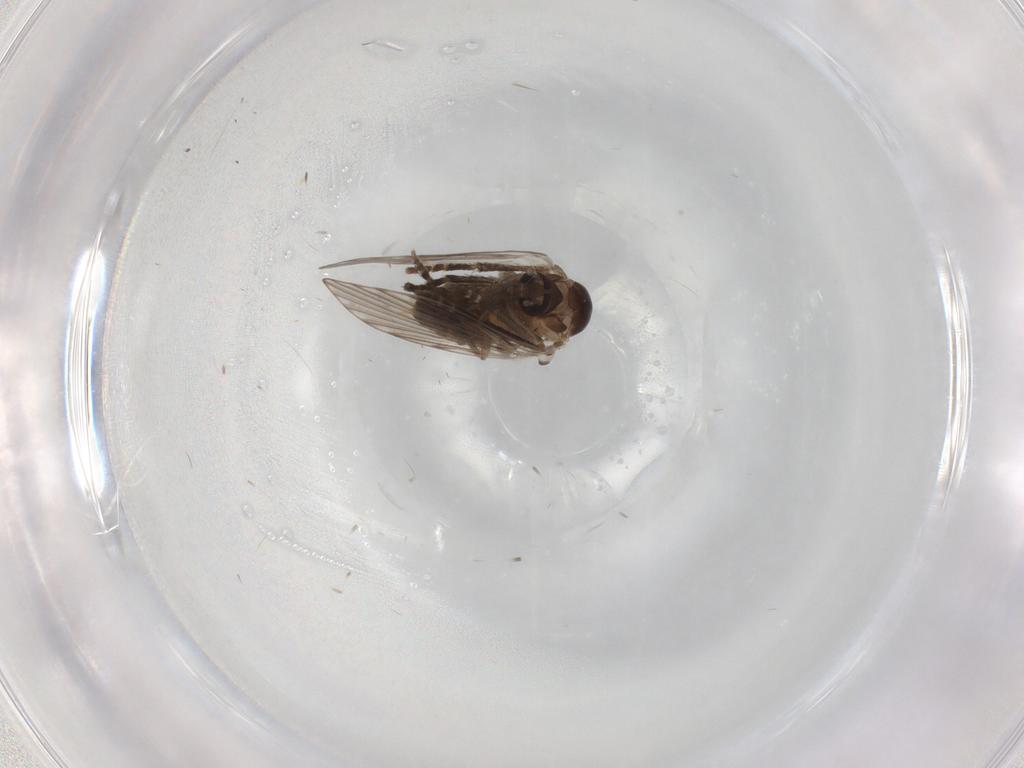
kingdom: Animalia
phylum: Arthropoda
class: Insecta
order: Diptera
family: Psychodidae
